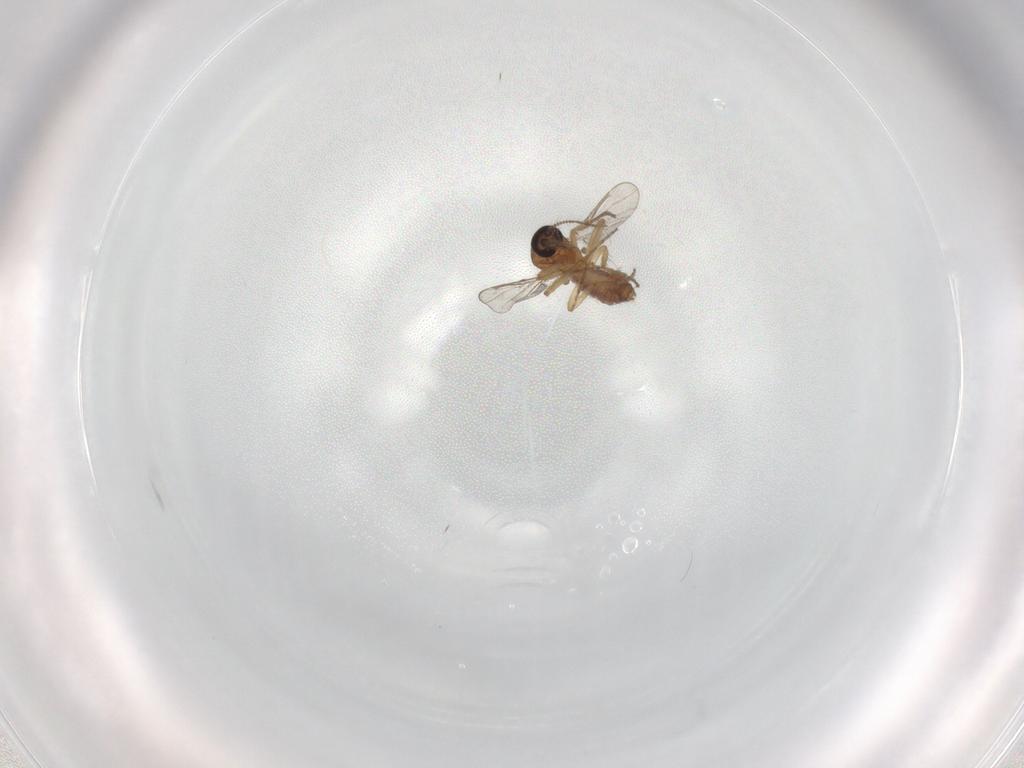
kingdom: Animalia
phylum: Arthropoda
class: Insecta
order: Diptera
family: Chironomidae
